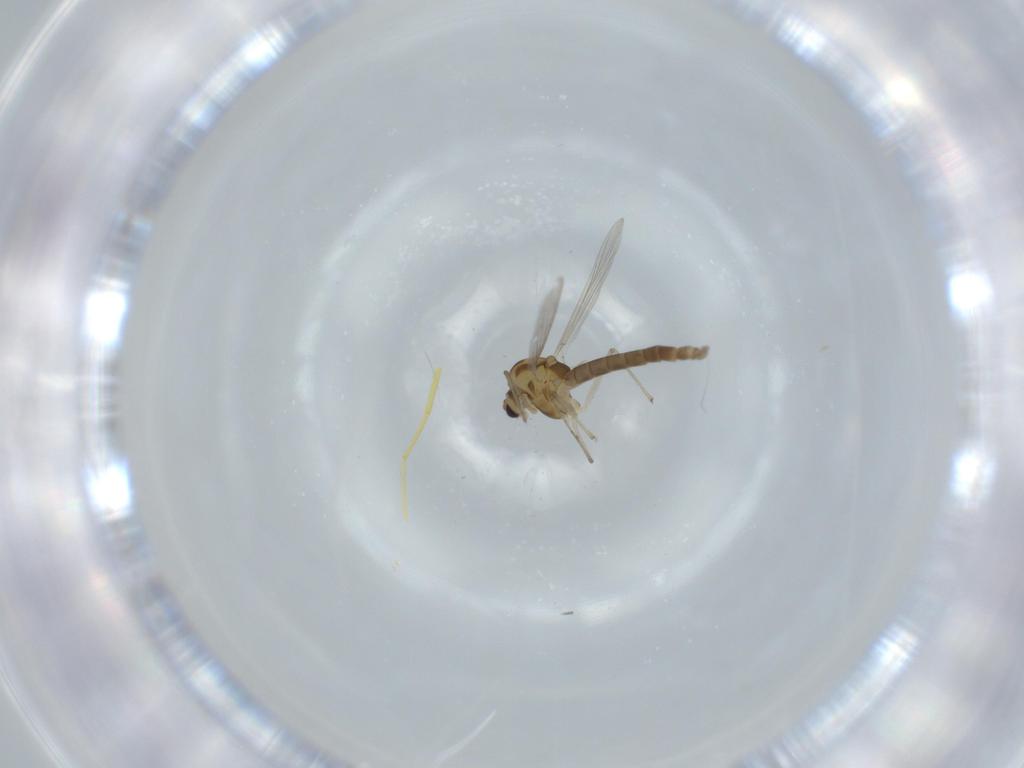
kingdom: Animalia
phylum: Arthropoda
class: Insecta
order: Diptera
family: Chironomidae
